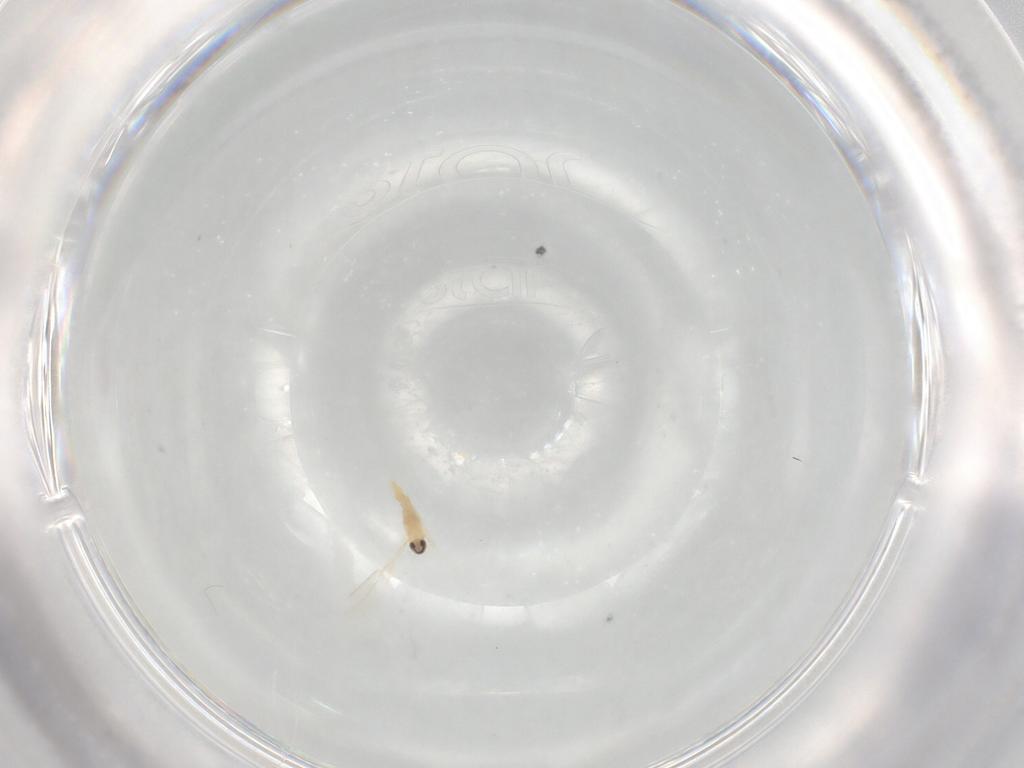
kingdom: Animalia
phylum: Arthropoda
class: Insecta
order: Diptera
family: Cecidomyiidae
